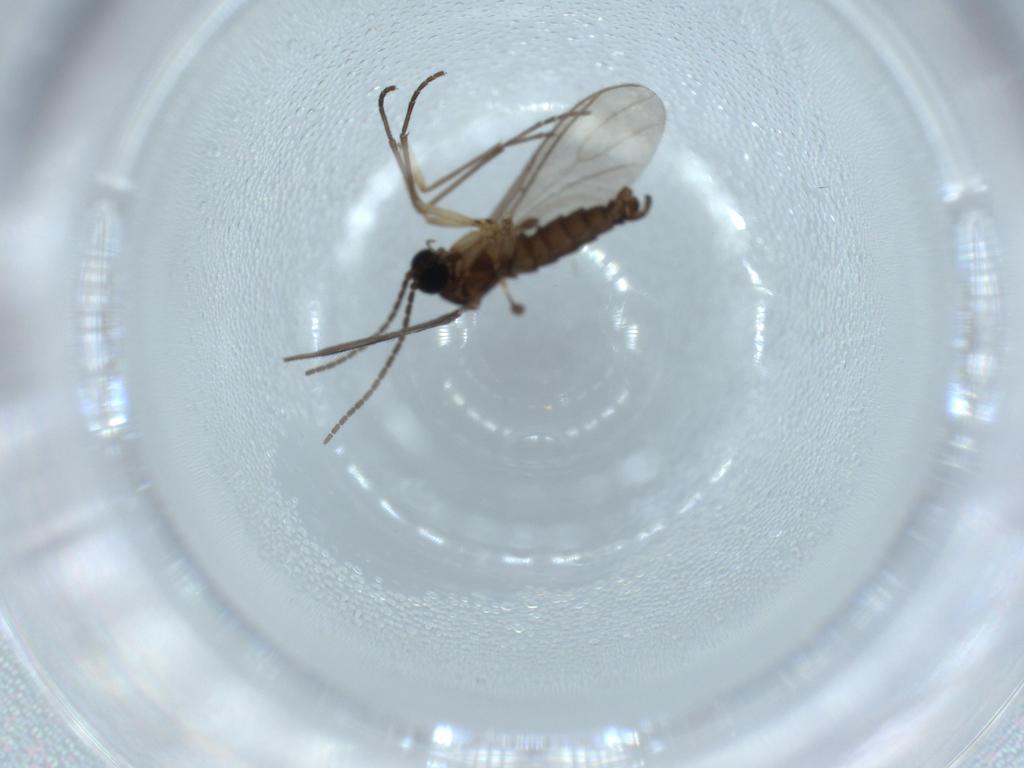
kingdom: Animalia
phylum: Arthropoda
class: Insecta
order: Diptera
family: Sciaridae
